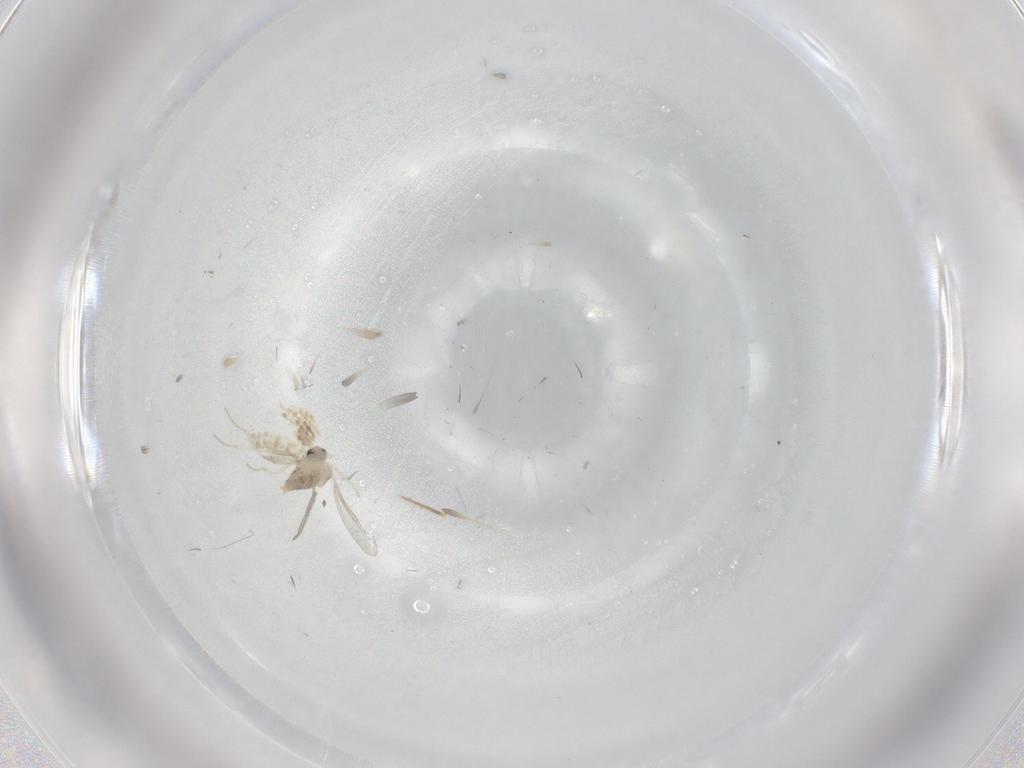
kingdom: Animalia
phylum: Arthropoda
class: Insecta
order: Diptera
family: Cecidomyiidae
